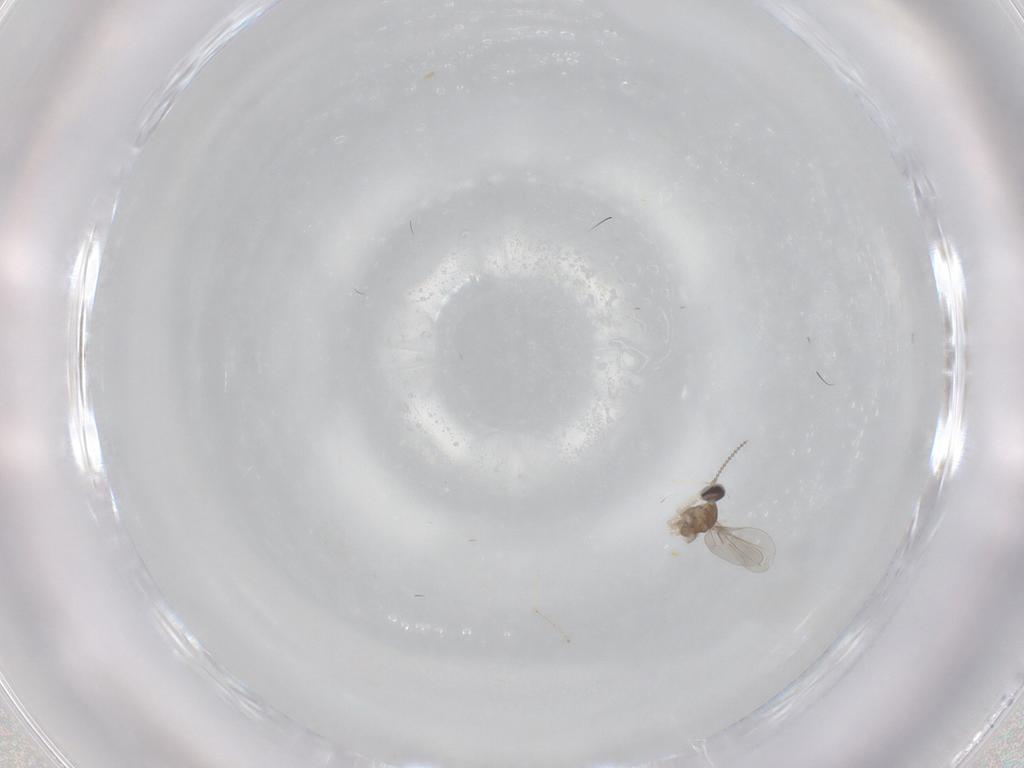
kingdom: Animalia
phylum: Arthropoda
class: Insecta
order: Diptera
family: Cecidomyiidae
